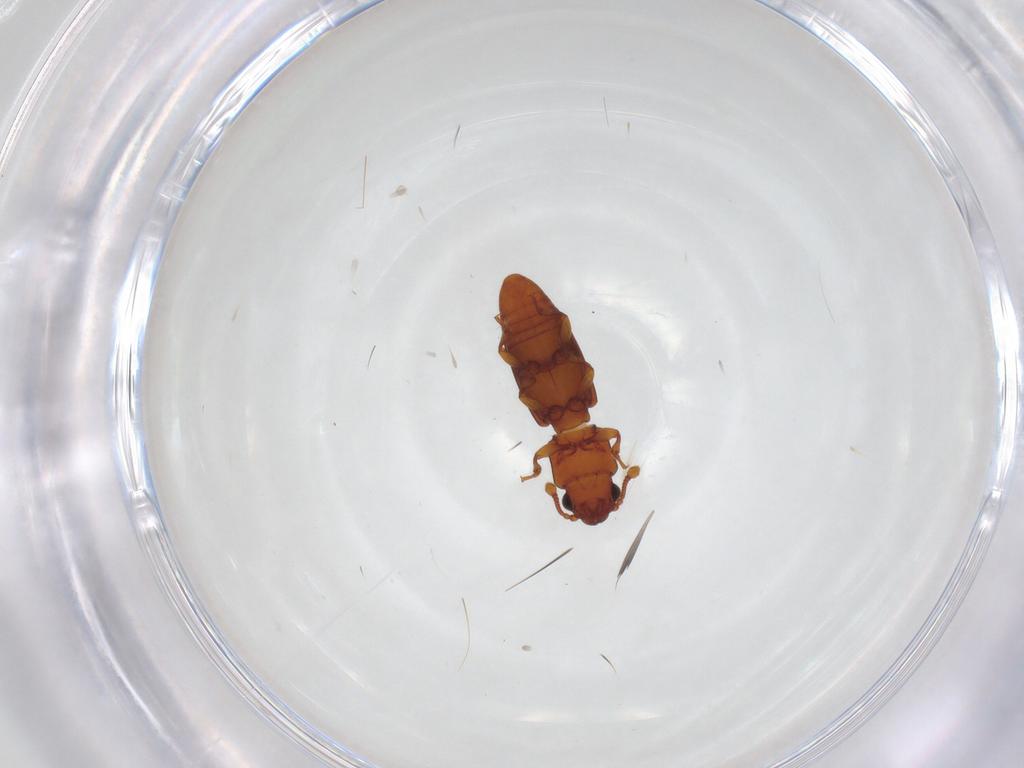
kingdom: Animalia
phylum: Arthropoda
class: Insecta
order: Coleoptera
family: Monotomidae
